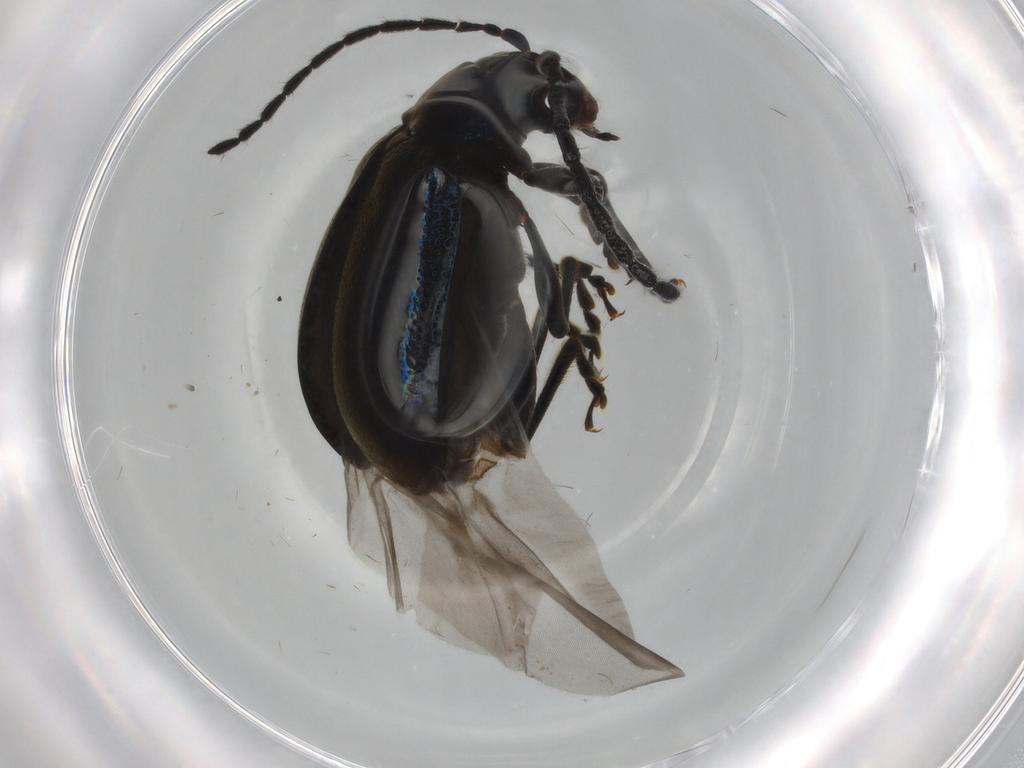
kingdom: Animalia
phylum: Arthropoda
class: Insecta
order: Coleoptera
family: Chrysomelidae
